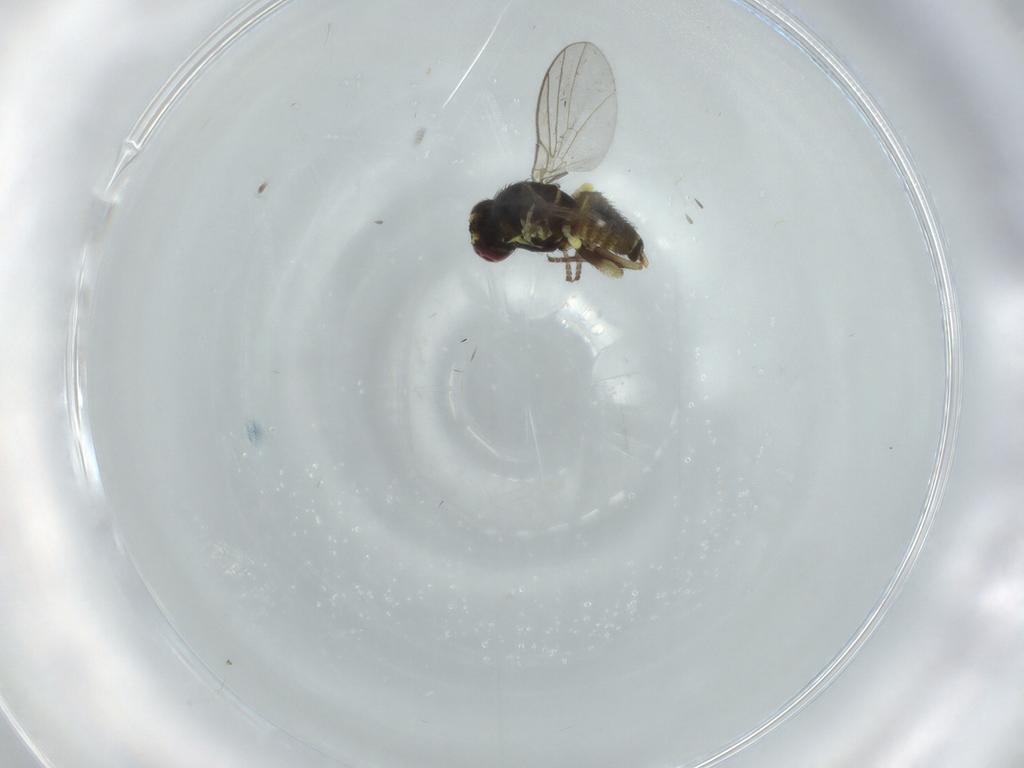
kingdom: Animalia
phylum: Arthropoda
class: Insecta
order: Diptera
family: Agromyzidae
